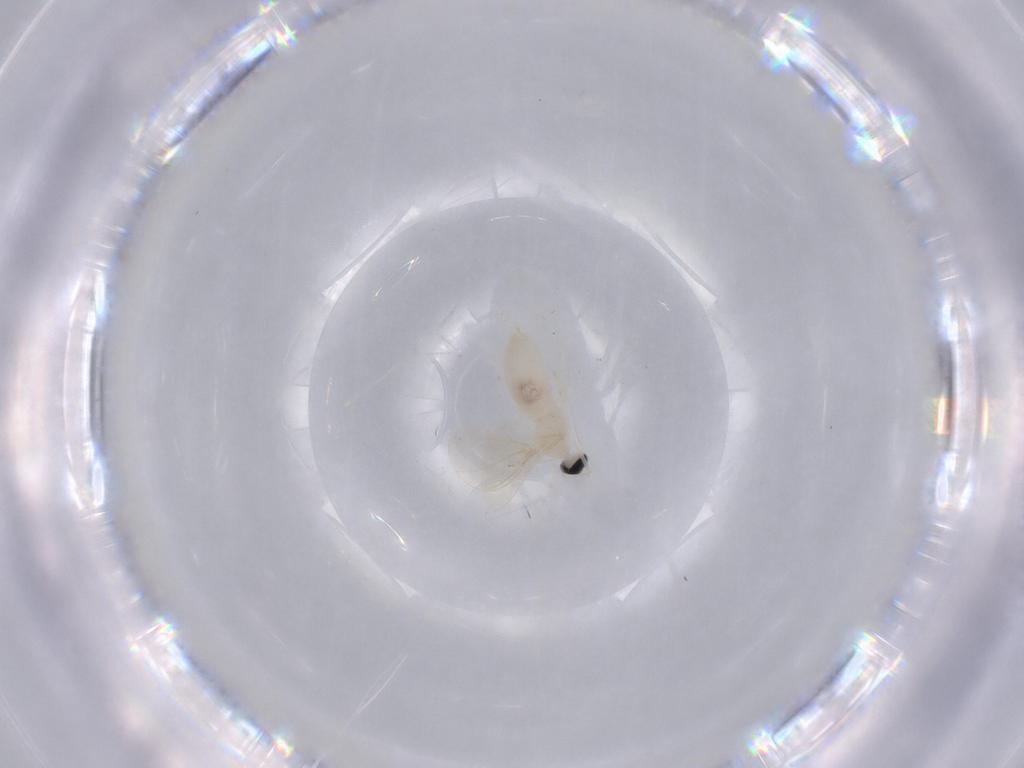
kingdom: Animalia
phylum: Arthropoda
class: Insecta
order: Diptera
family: Cecidomyiidae
